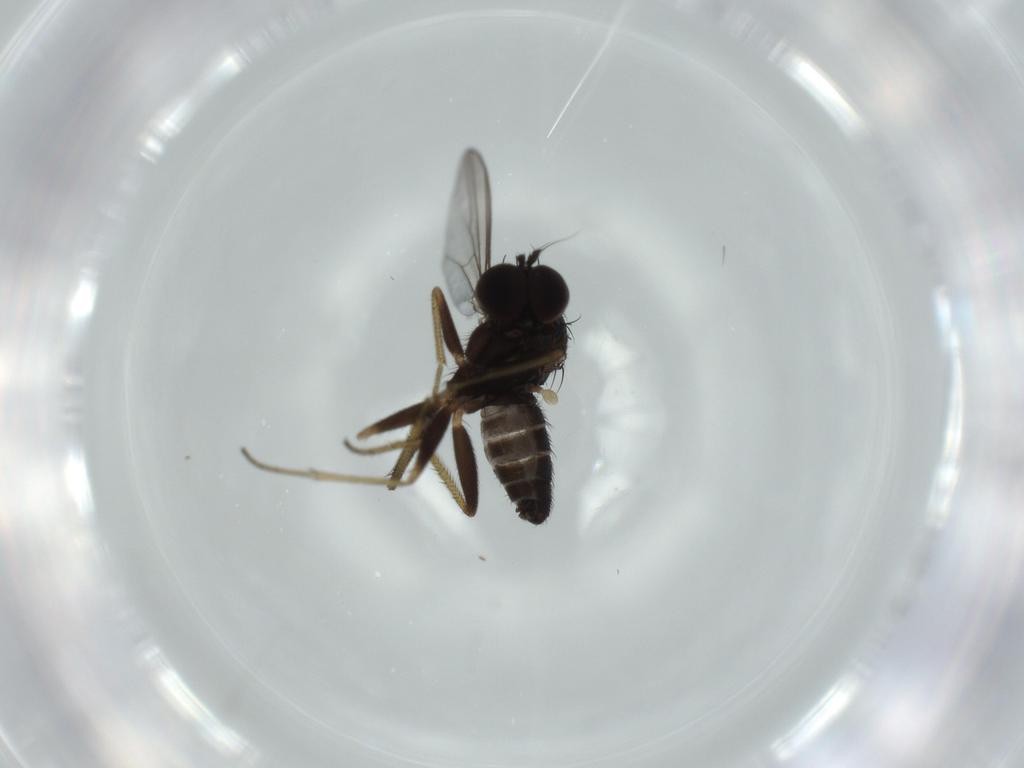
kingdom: Animalia
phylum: Arthropoda
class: Insecta
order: Diptera
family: Dolichopodidae
